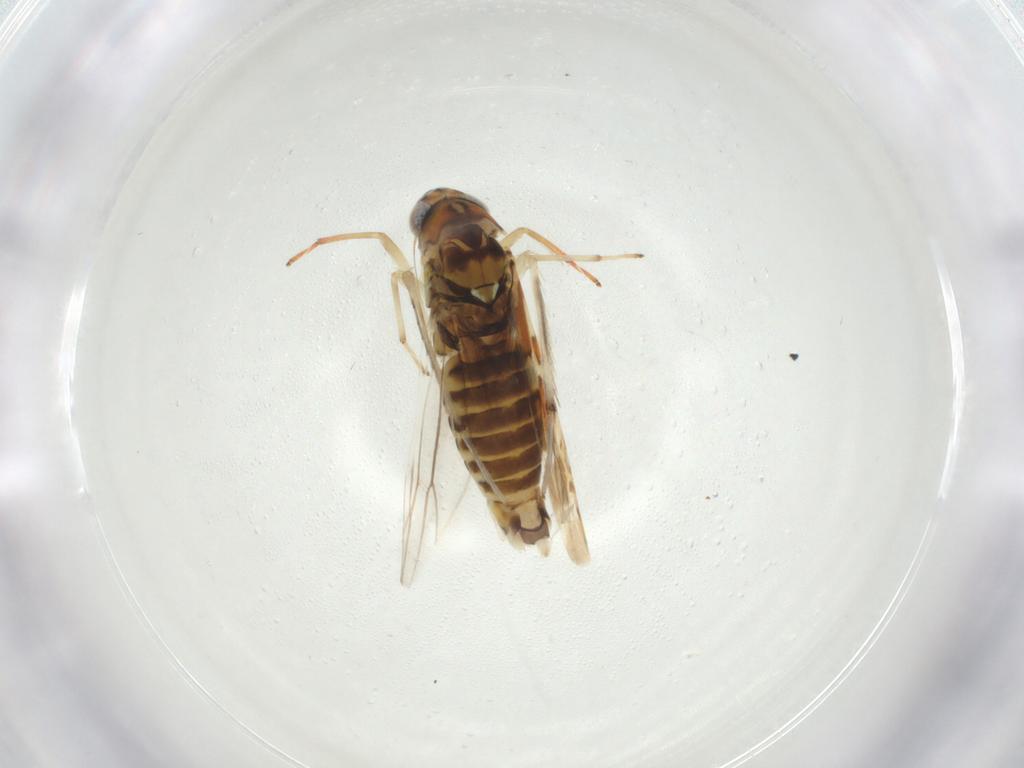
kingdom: Animalia
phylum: Arthropoda
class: Insecta
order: Hemiptera
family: Cicadellidae
